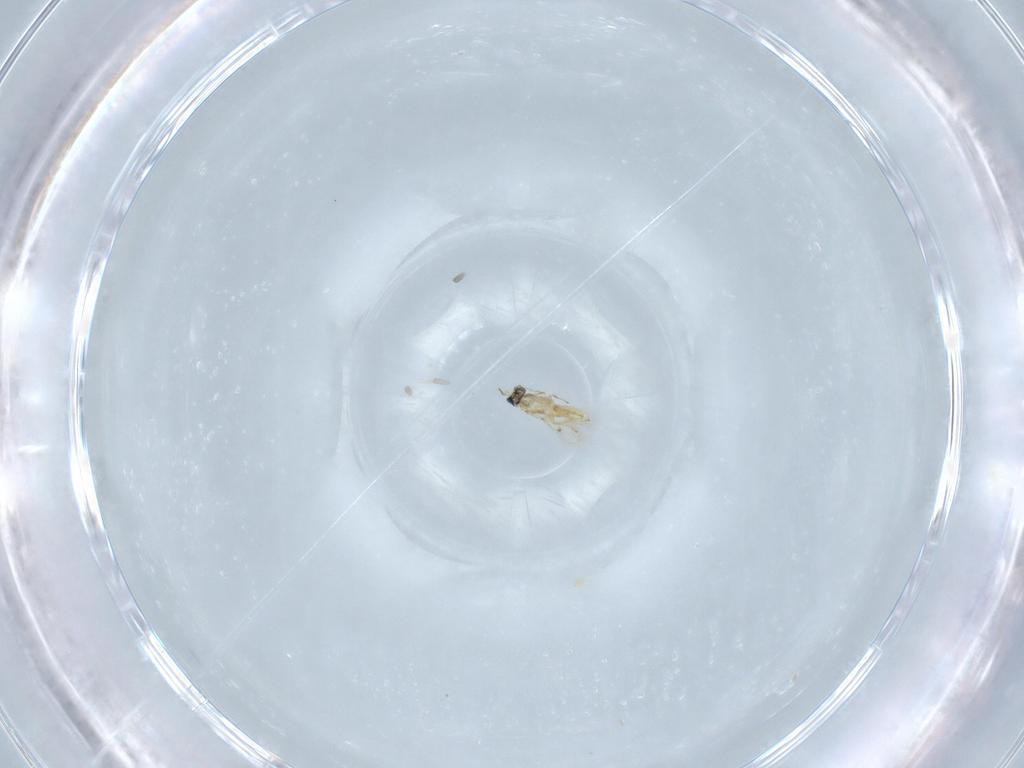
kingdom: Animalia
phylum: Arthropoda
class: Insecta
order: Hymenoptera
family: Trichogrammatidae
